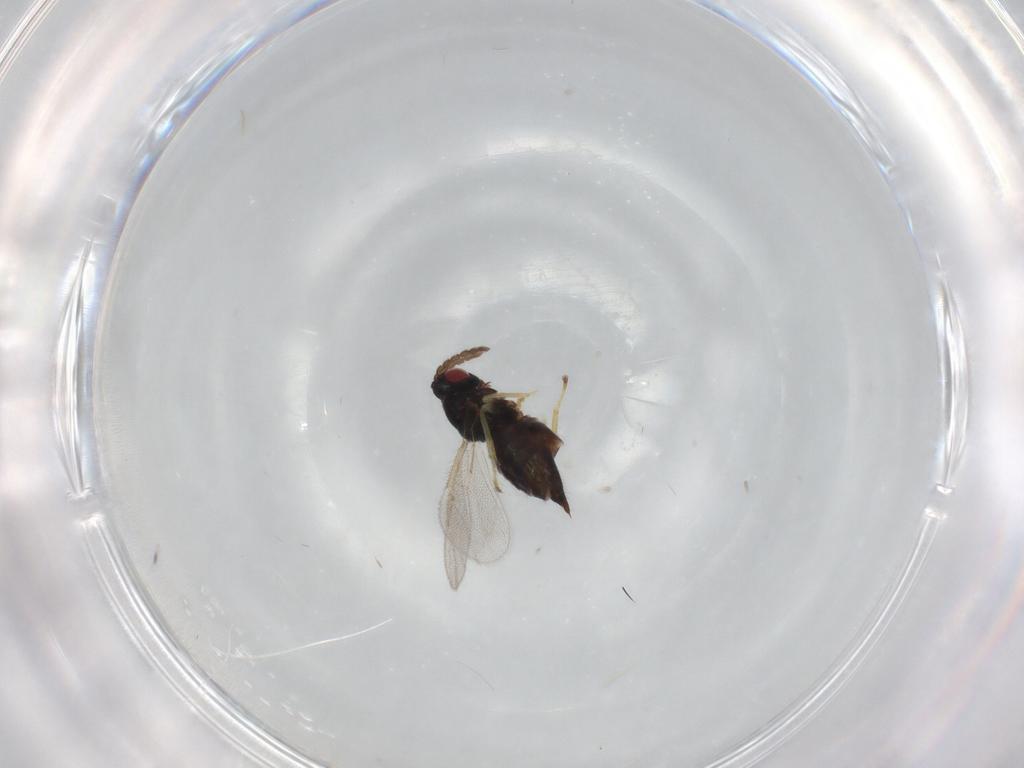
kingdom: Animalia
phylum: Arthropoda
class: Insecta
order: Hymenoptera
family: Eulophidae
